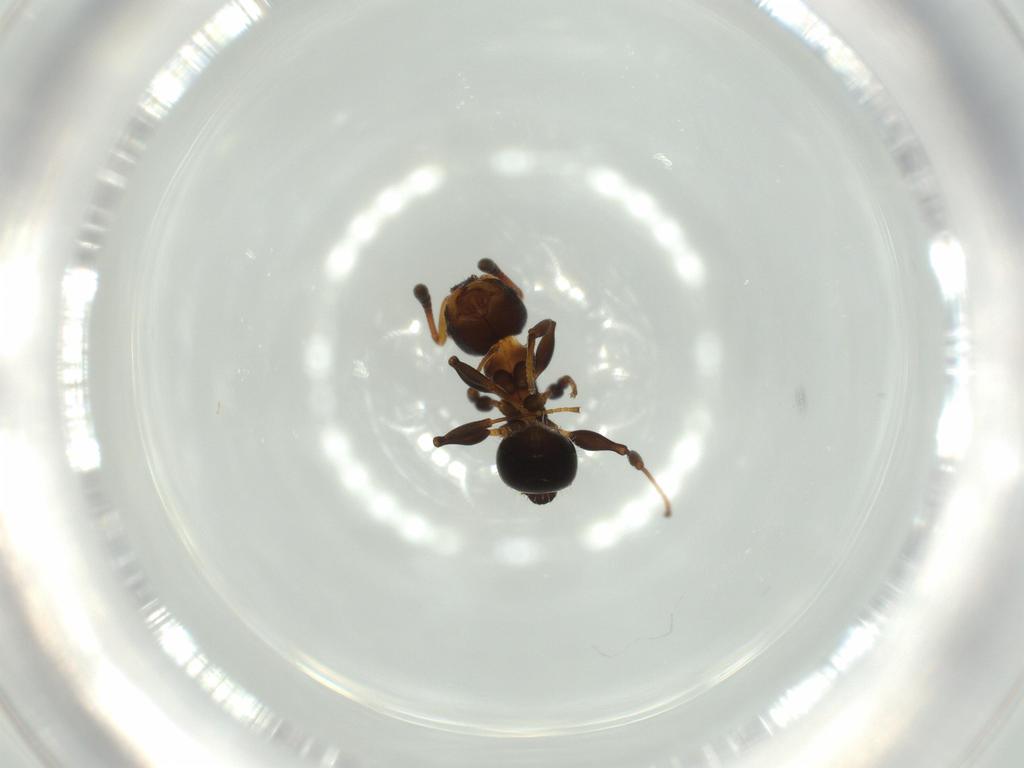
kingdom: Animalia
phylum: Arthropoda
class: Insecta
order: Hymenoptera
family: Formicidae
